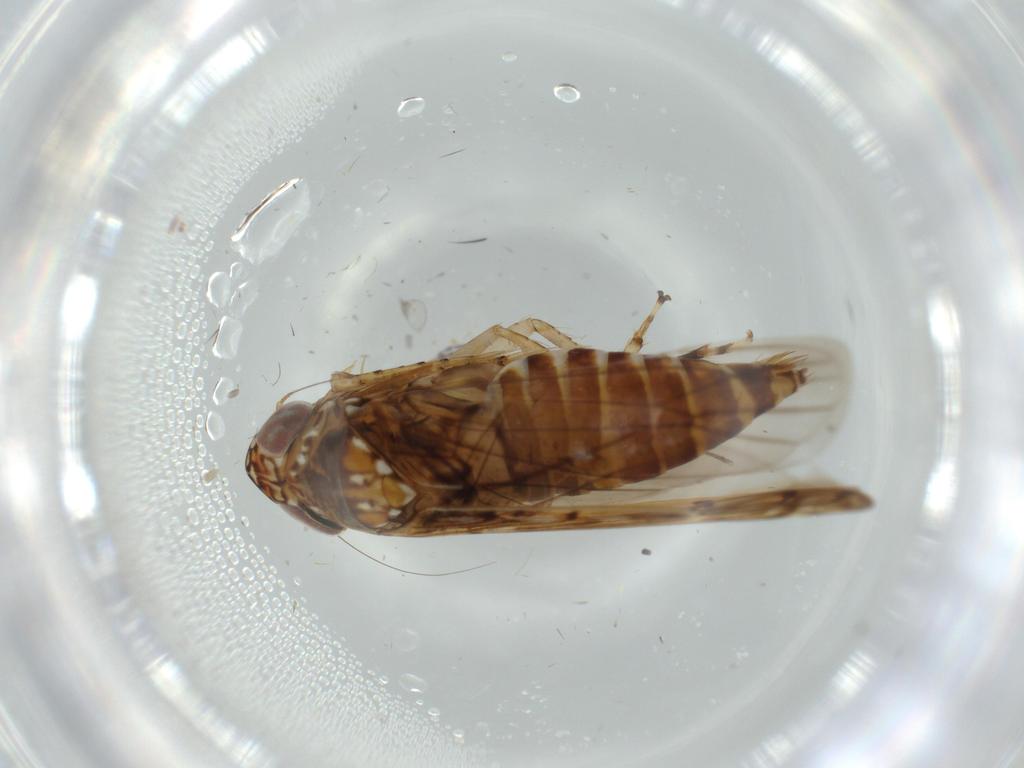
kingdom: Animalia
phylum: Arthropoda
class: Insecta
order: Hemiptera
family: Cicadellidae
